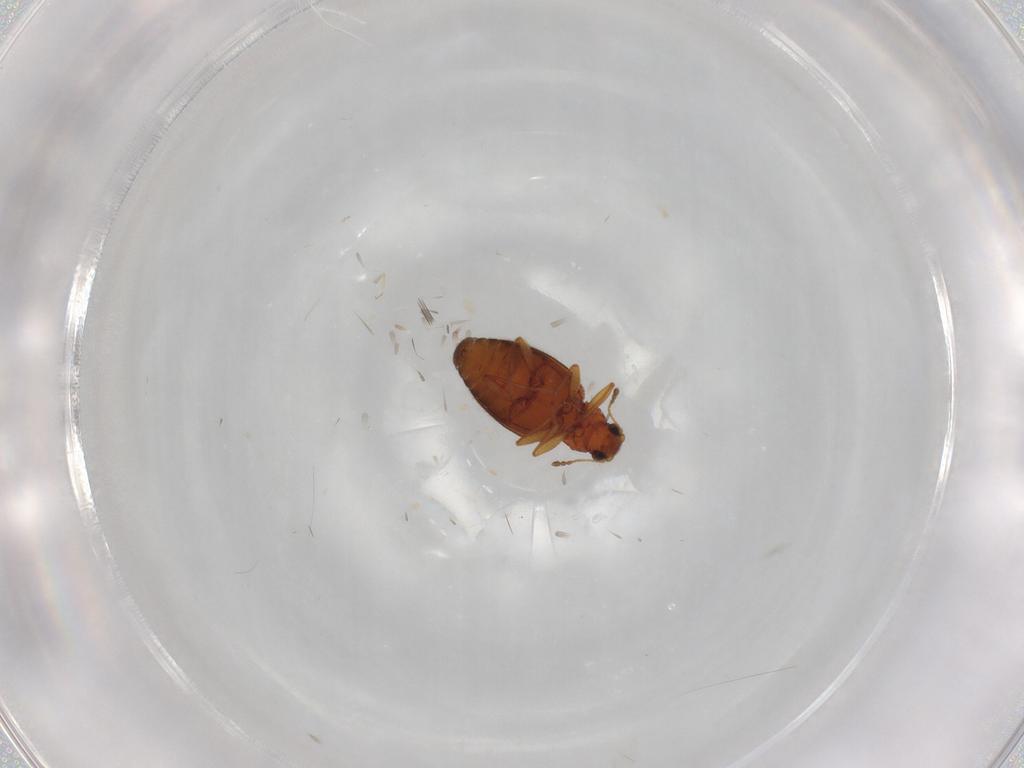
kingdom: Animalia
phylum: Arthropoda
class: Insecta
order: Coleoptera
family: Latridiidae
